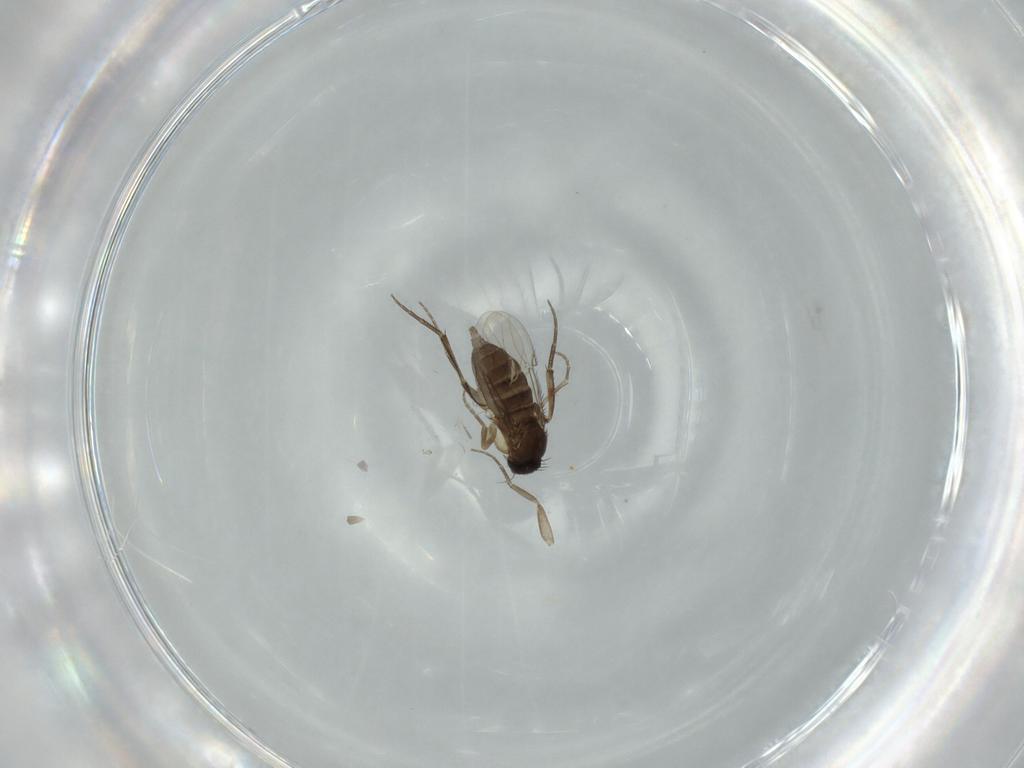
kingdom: Animalia
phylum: Arthropoda
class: Insecta
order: Diptera
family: Phoridae
